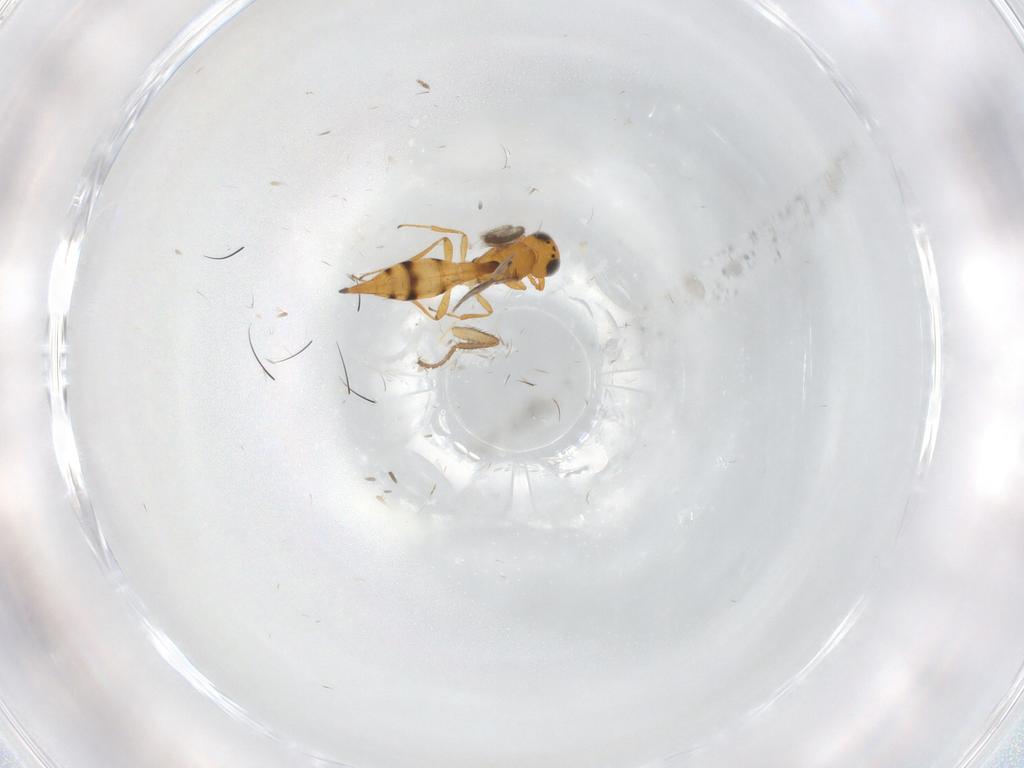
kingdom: Animalia
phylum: Arthropoda
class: Insecta
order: Hymenoptera
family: Scelionidae
